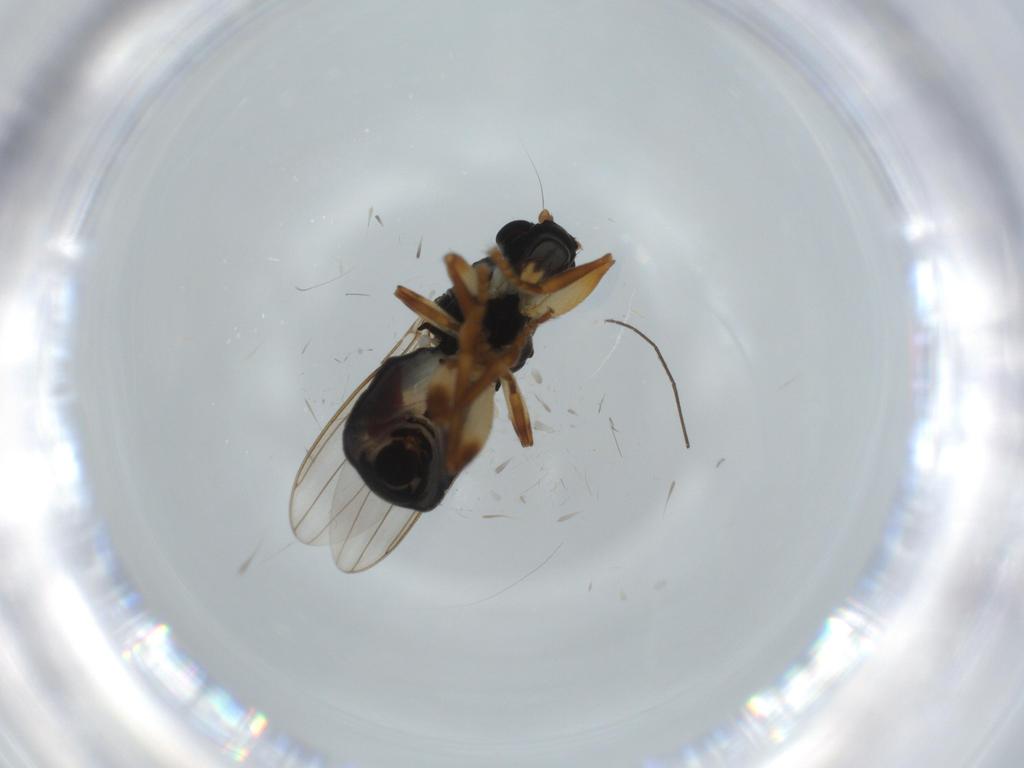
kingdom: Animalia
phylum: Arthropoda
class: Insecta
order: Diptera
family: Sphaeroceridae
